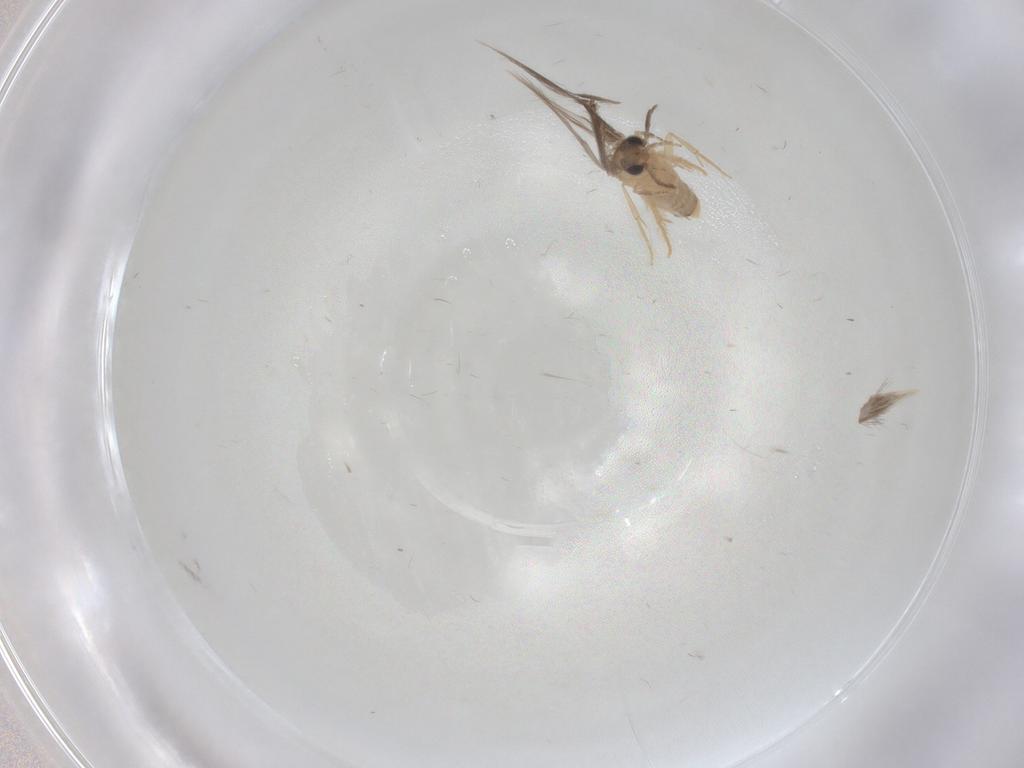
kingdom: Animalia
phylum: Arthropoda
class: Insecta
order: Trichoptera
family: Hydroptilidae
